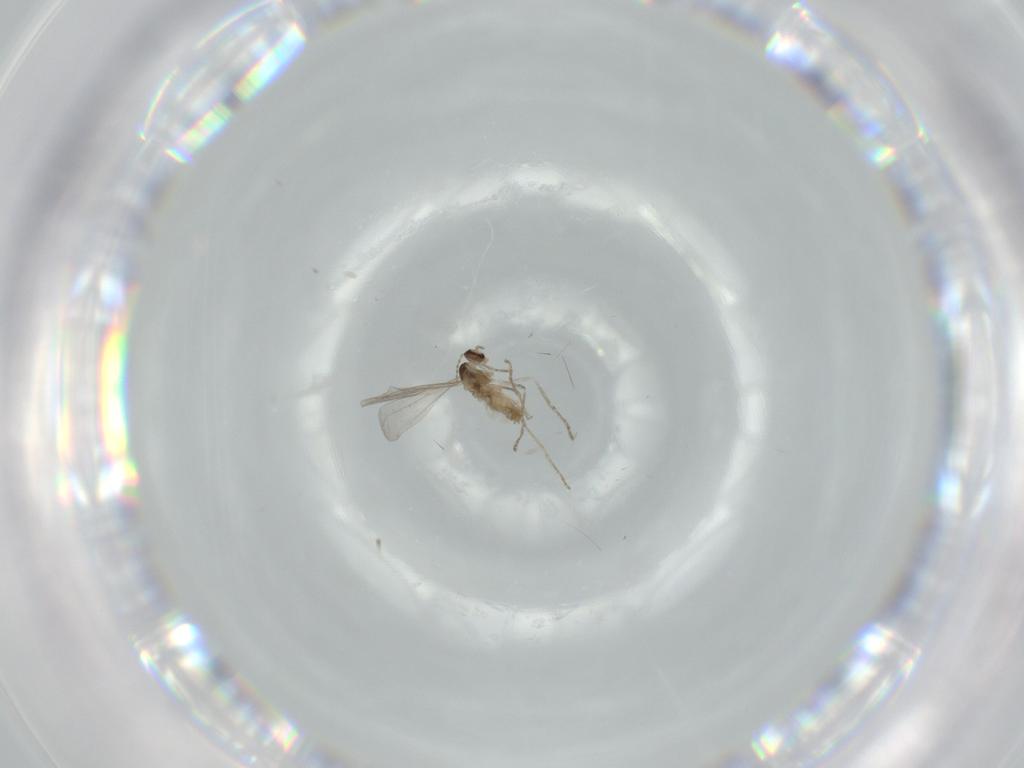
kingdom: Animalia
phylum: Arthropoda
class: Insecta
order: Diptera
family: Cecidomyiidae
